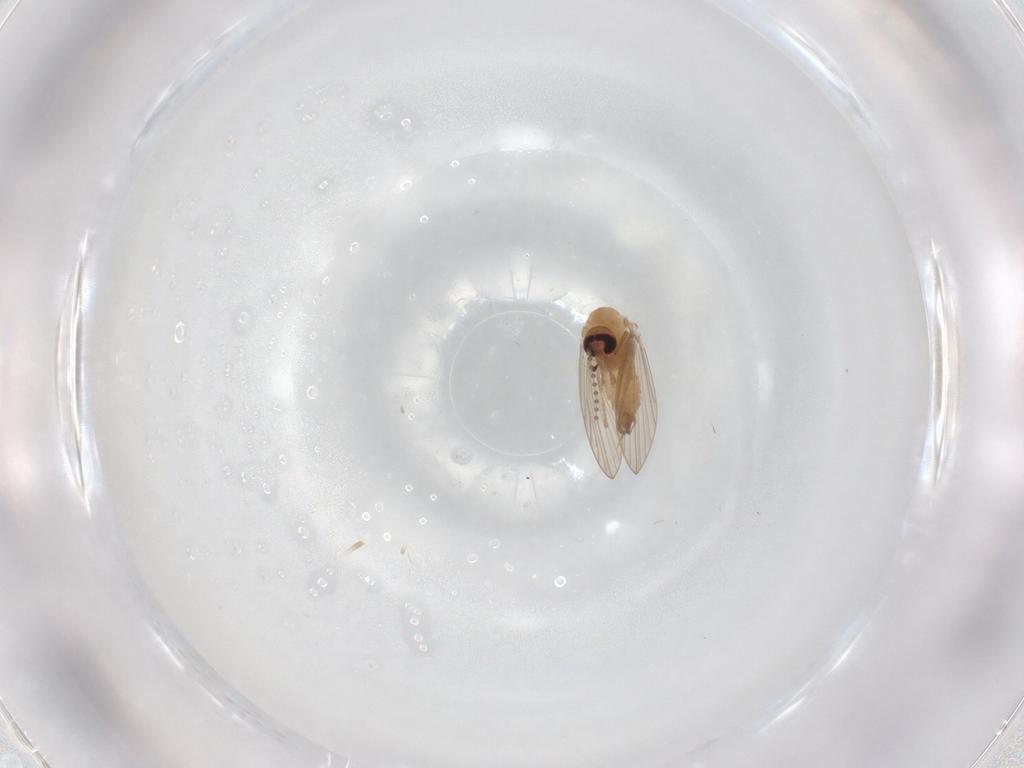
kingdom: Animalia
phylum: Arthropoda
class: Insecta
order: Diptera
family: Psychodidae
